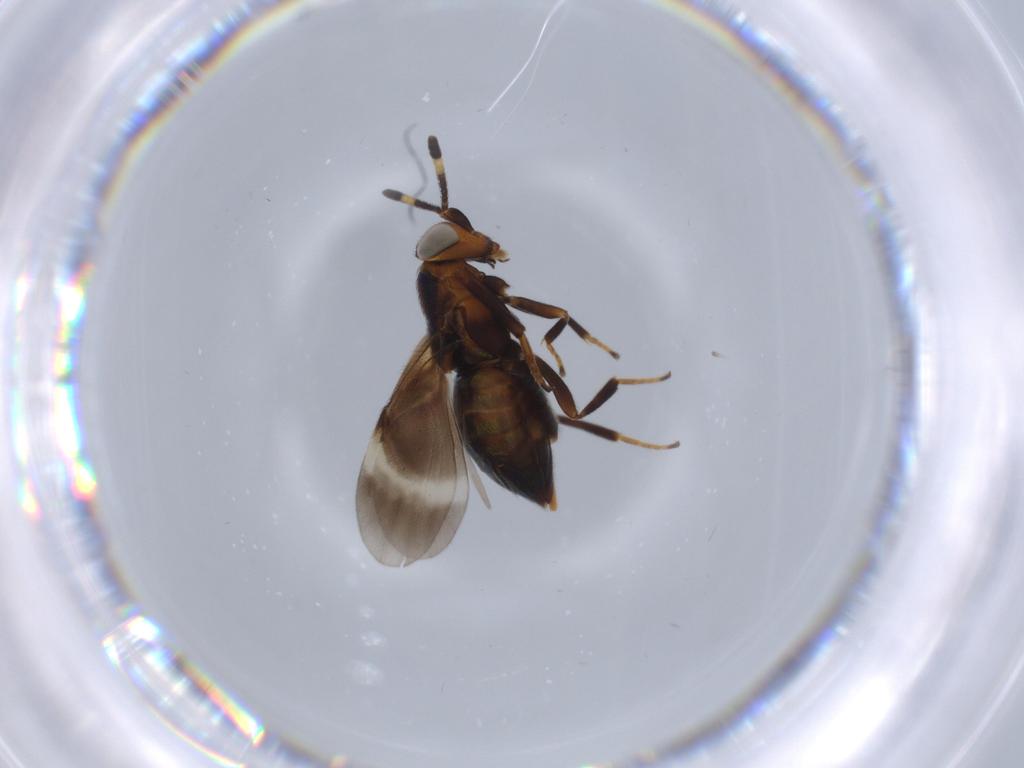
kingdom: Animalia
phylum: Arthropoda
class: Insecta
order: Hymenoptera
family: Encyrtidae
